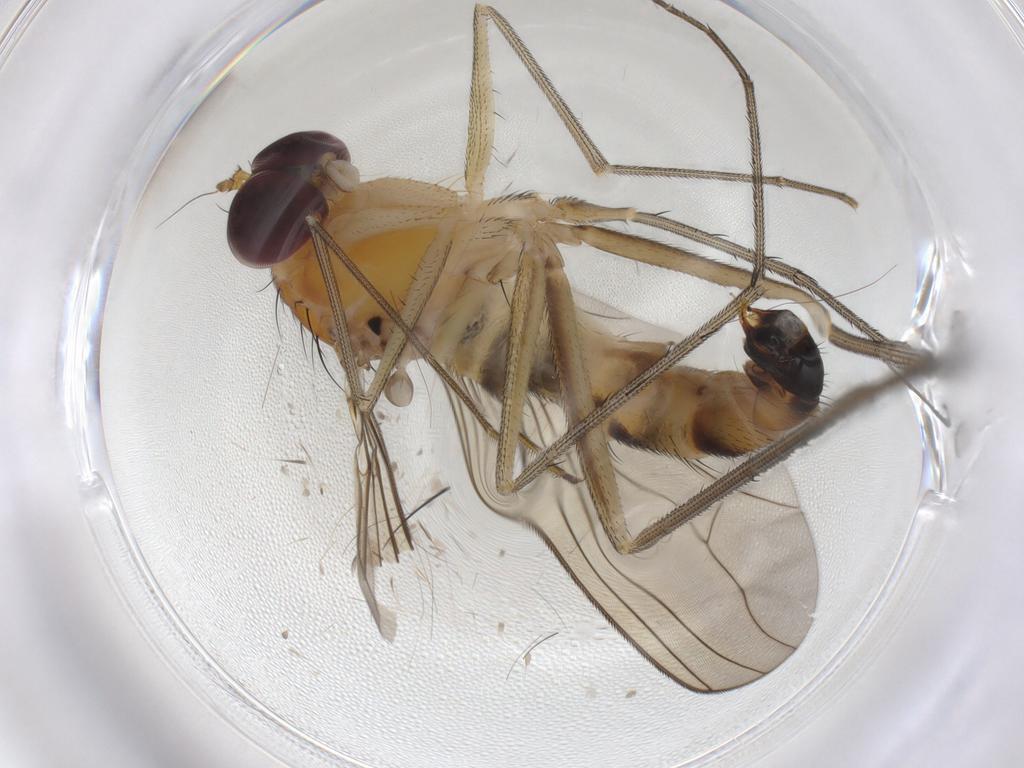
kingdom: Animalia
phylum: Arthropoda
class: Insecta
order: Diptera
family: Dolichopodidae
